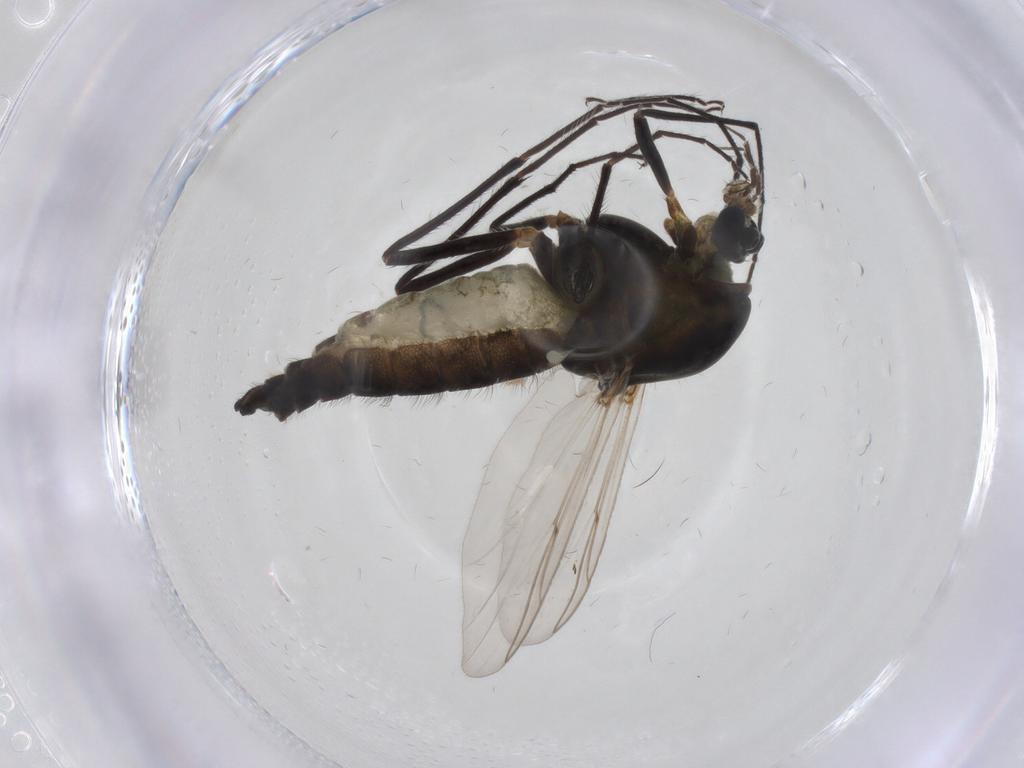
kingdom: Animalia
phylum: Arthropoda
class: Insecta
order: Diptera
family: Chironomidae
